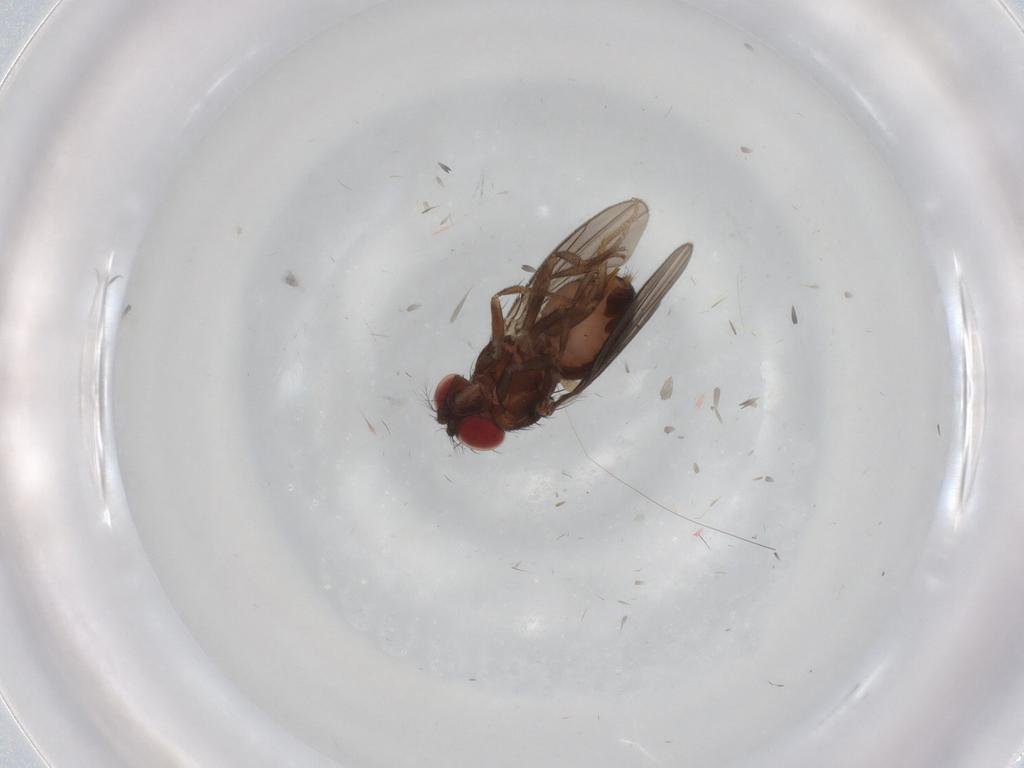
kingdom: Animalia
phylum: Arthropoda
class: Insecta
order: Diptera
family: Drosophilidae
